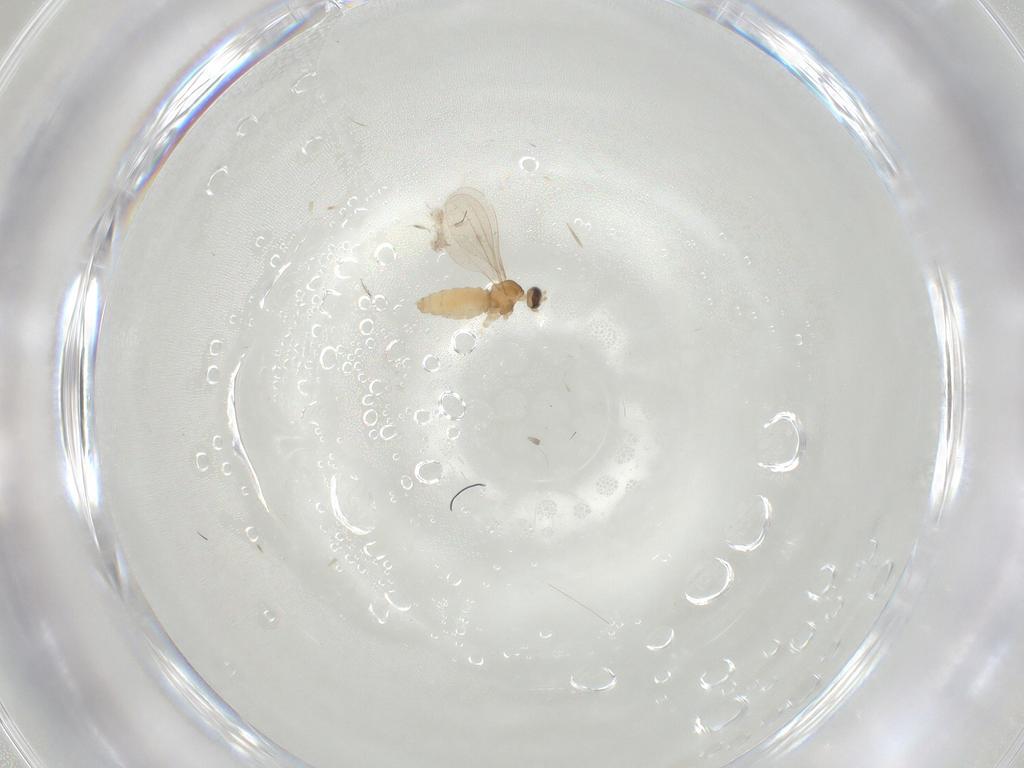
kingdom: Animalia
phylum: Arthropoda
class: Insecta
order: Diptera
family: Cecidomyiidae
